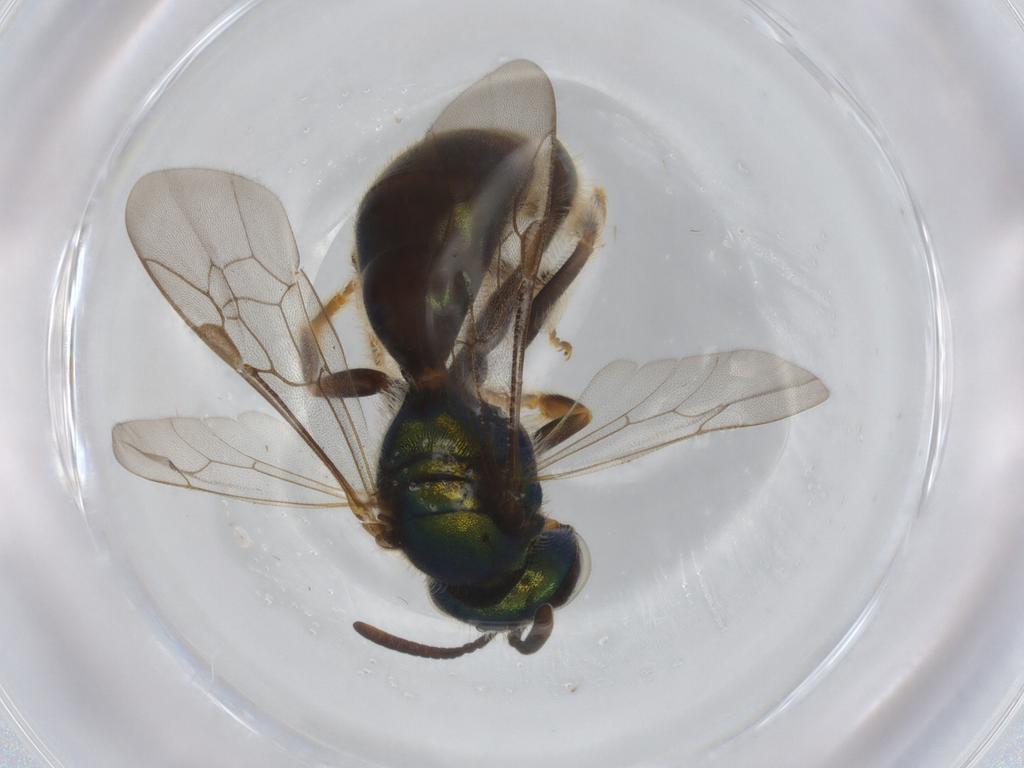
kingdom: Animalia
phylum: Arthropoda
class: Insecta
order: Hymenoptera
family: Halictidae
